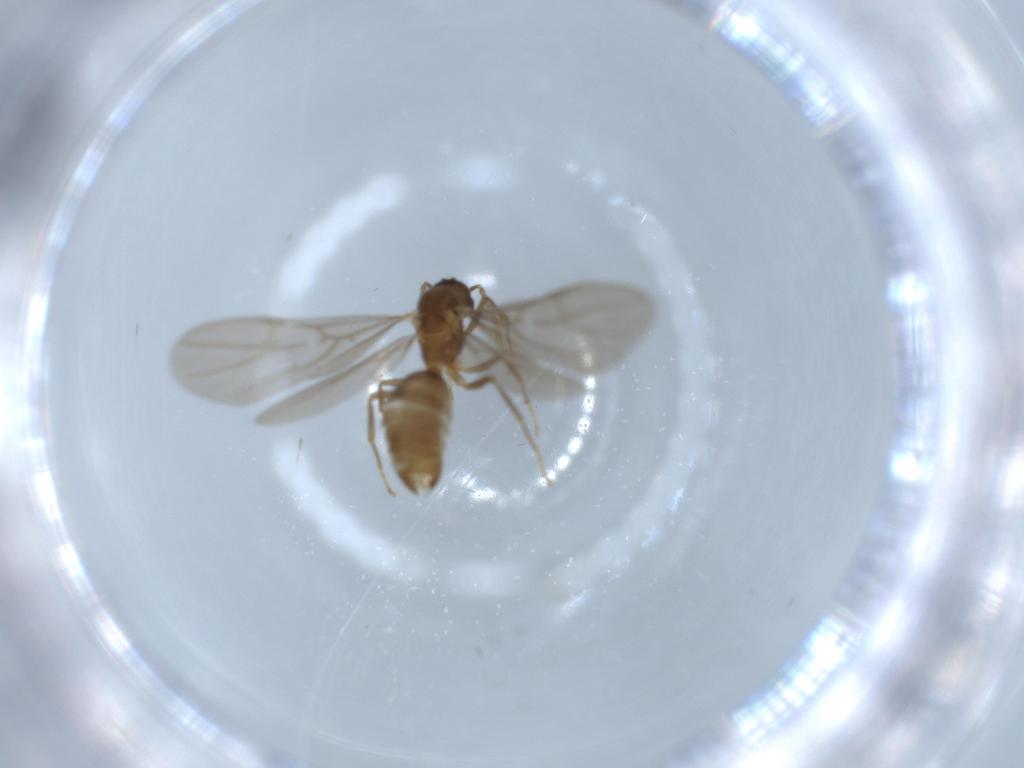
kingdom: Animalia
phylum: Arthropoda
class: Insecta
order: Hymenoptera
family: Formicidae
